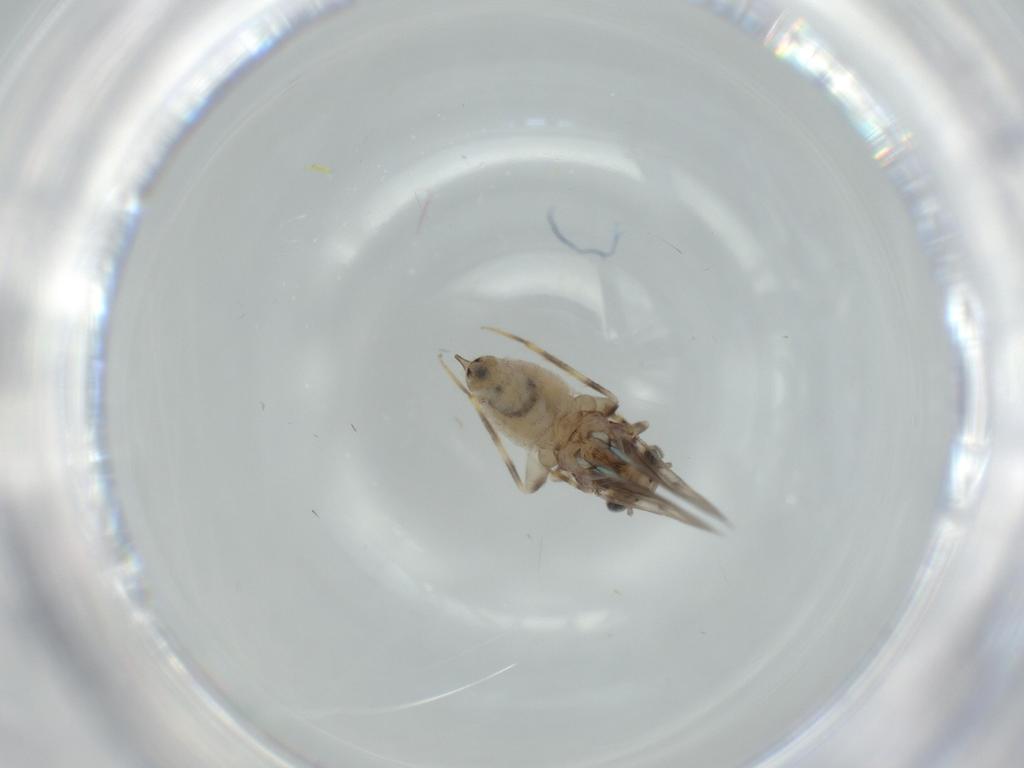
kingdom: Animalia
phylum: Arthropoda
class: Insecta
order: Psocodea
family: Lepidopsocidae
